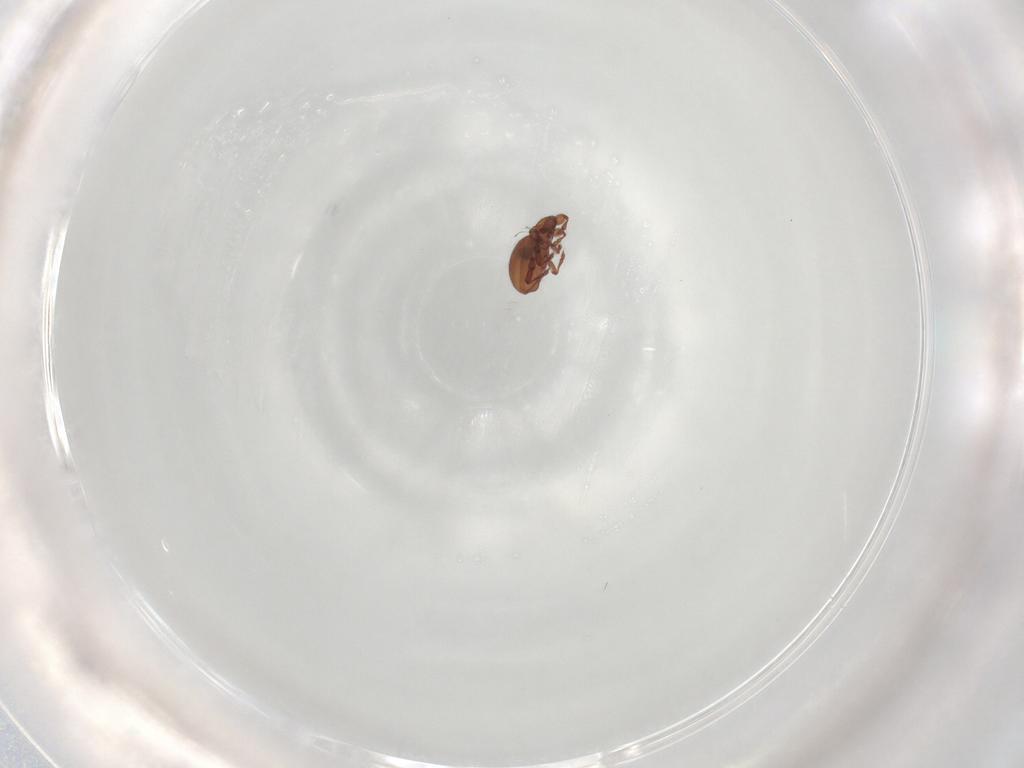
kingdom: Animalia
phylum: Arthropoda
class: Arachnida
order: Sarcoptiformes
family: Eremaeidae
